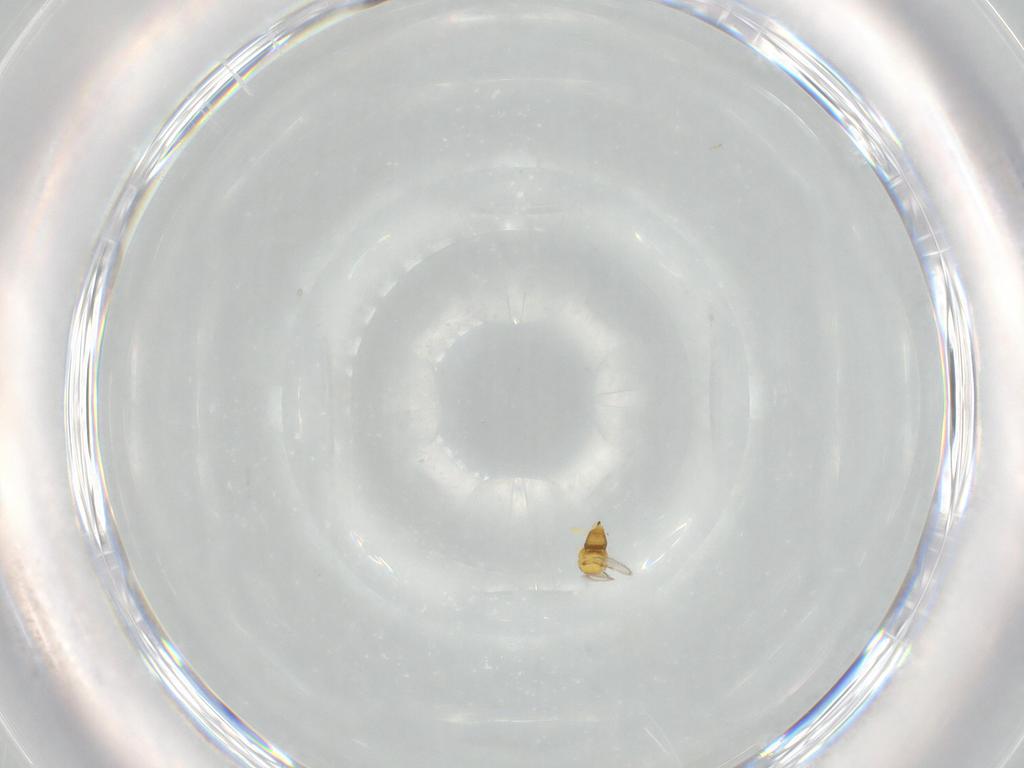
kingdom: Animalia
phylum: Arthropoda
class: Insecta
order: Hymenoptera
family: Aphelinidae
